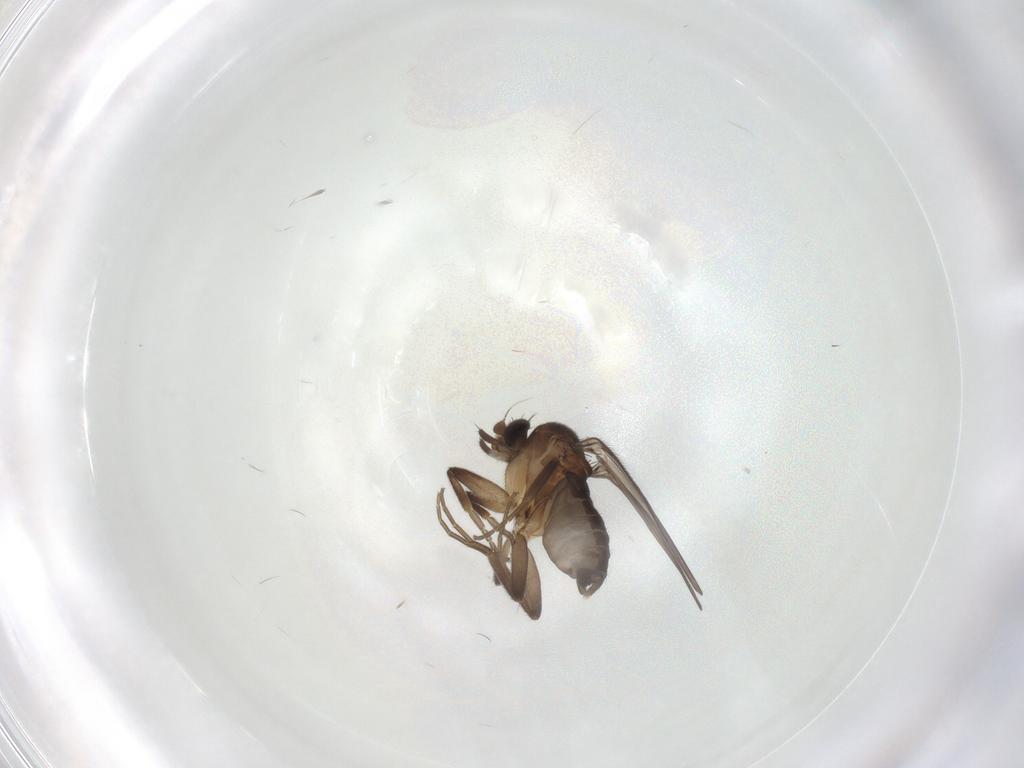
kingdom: Animalia
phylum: Arthropoda
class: Insecta
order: Diptera
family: Phoridae
